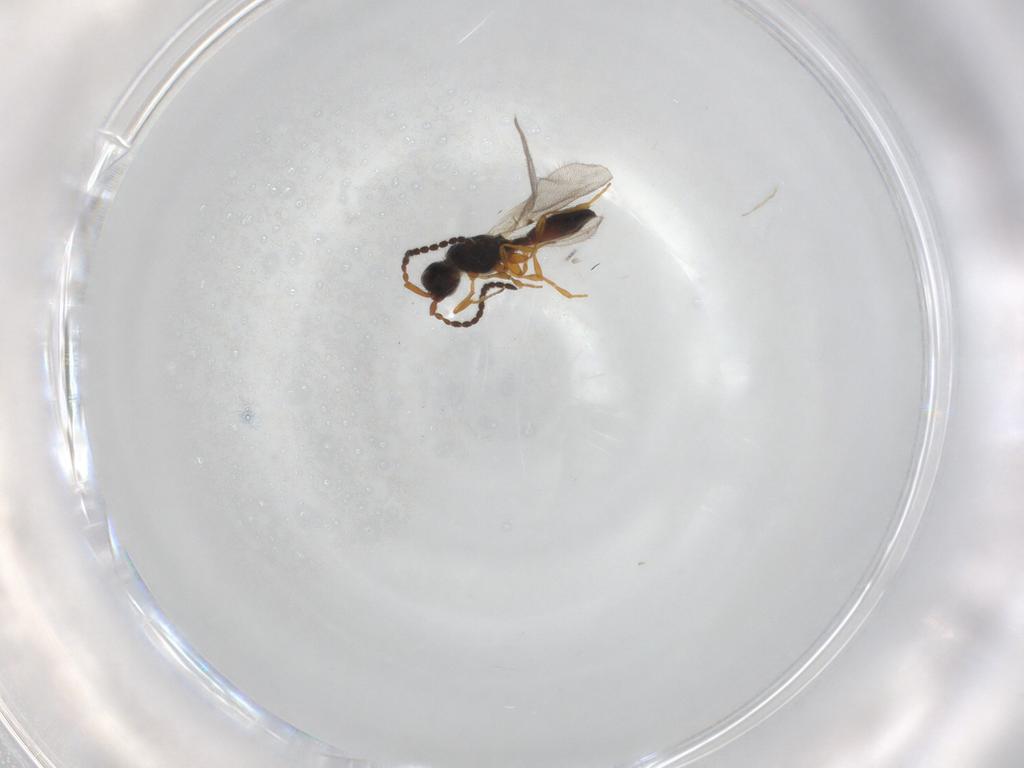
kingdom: Animalia
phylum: Arthropoda
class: Insecta
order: Hymenoptera
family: Diapriidae
